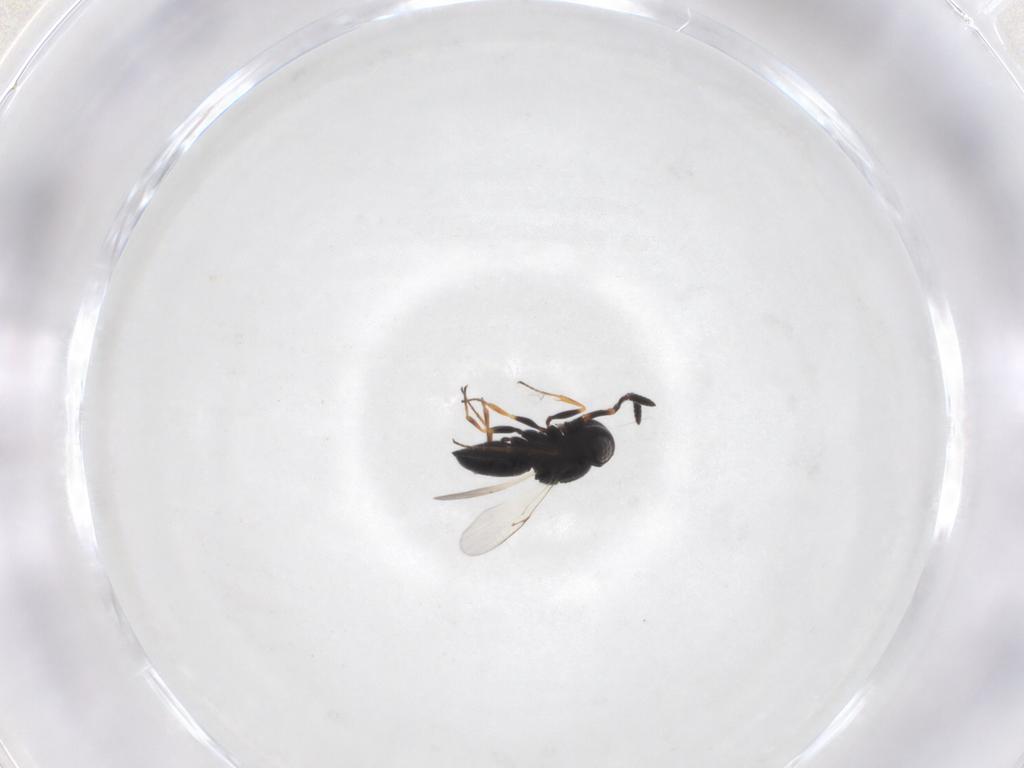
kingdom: Animalia
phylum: Arthropoda
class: Insecta
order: Hymenoptera
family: Scelionidae
